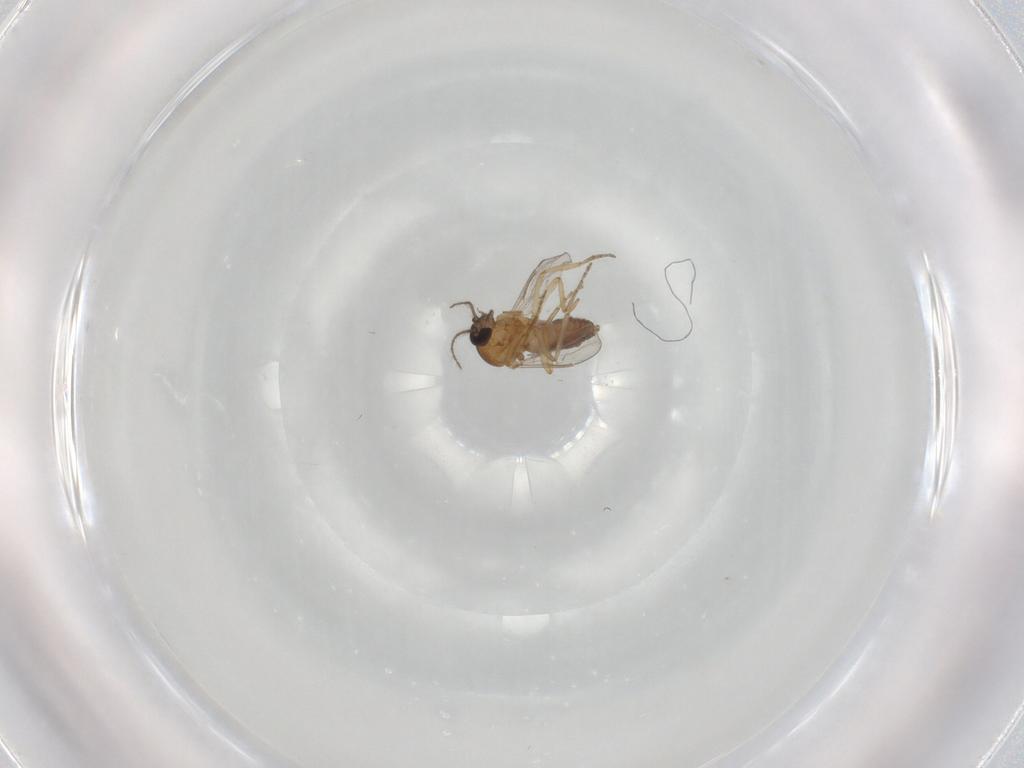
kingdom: Animalia
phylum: Arthropoda
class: Insecta
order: Diptera
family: Ceratopogonidae
